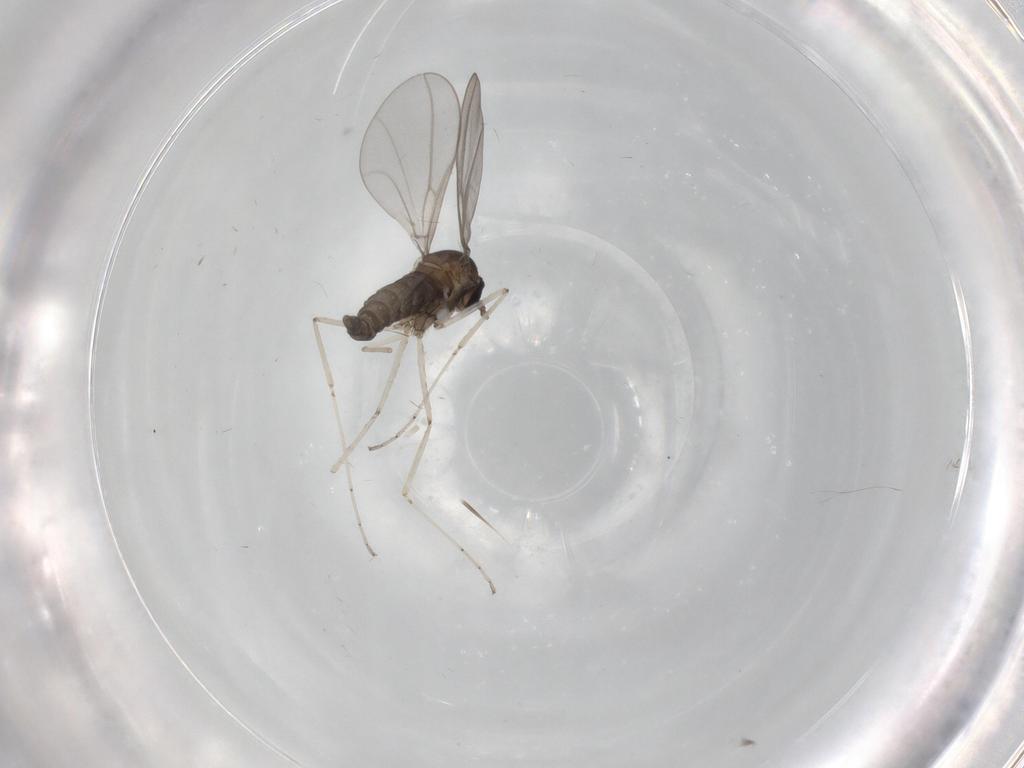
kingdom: Animalia
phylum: Arthropoda
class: Insecta
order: Diptera
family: Cecidomyiidae
